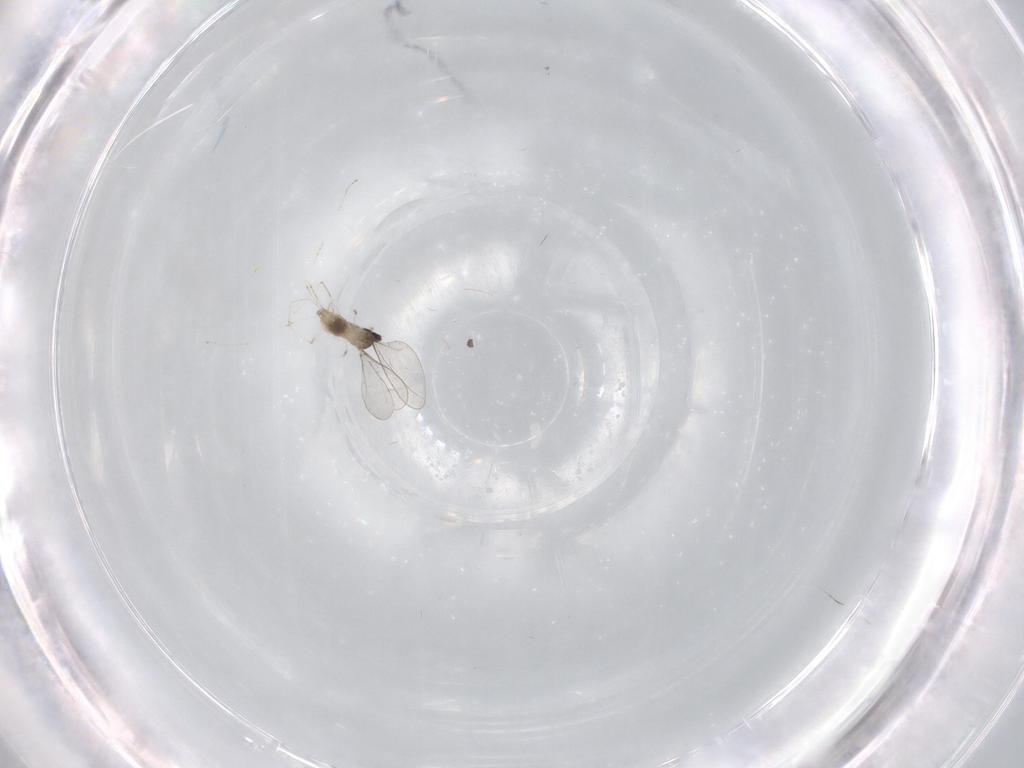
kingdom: Animalia
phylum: Arthropoda
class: Insecta
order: Diptera
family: Cecidomyiidae
